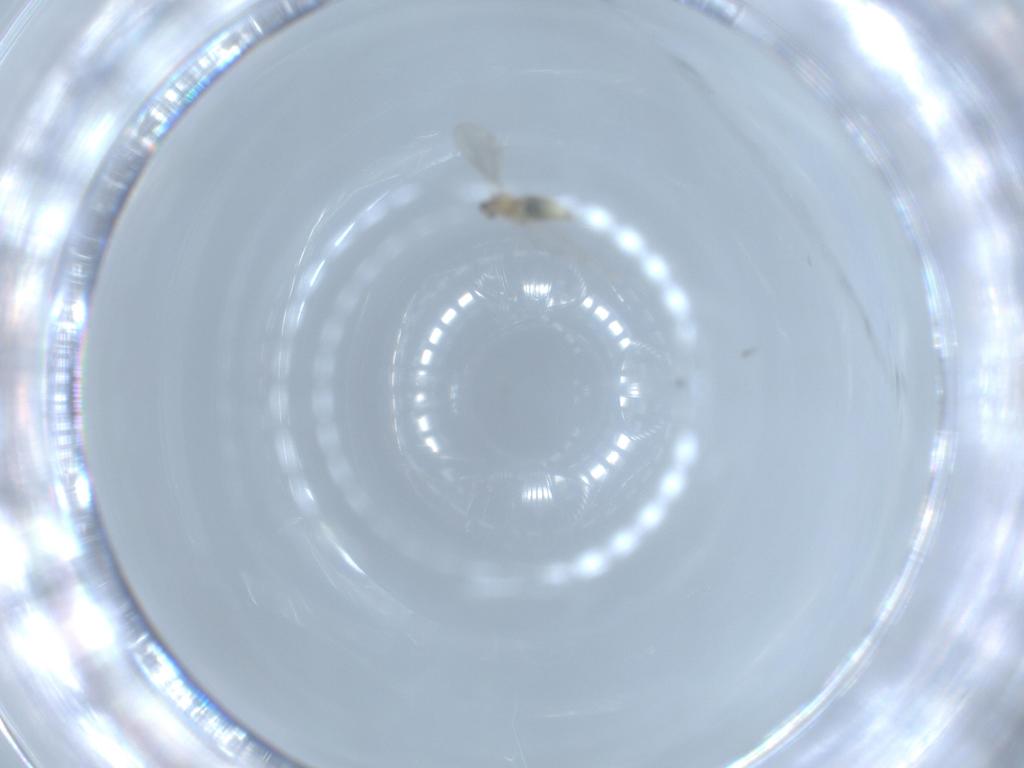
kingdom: Animalia
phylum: Arthropoda
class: Insecta
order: Diptera
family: Cecidomyiidae
